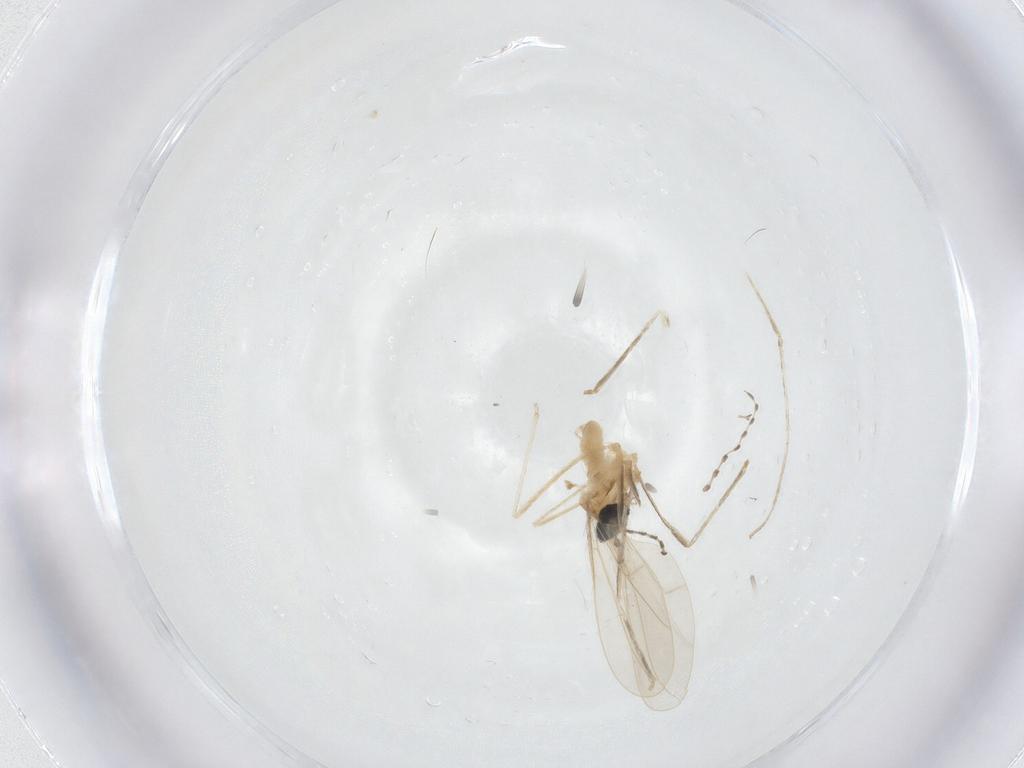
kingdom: Animalia
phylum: Arthropoda
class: Insecta
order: Diptera
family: Cecidomyiidae
